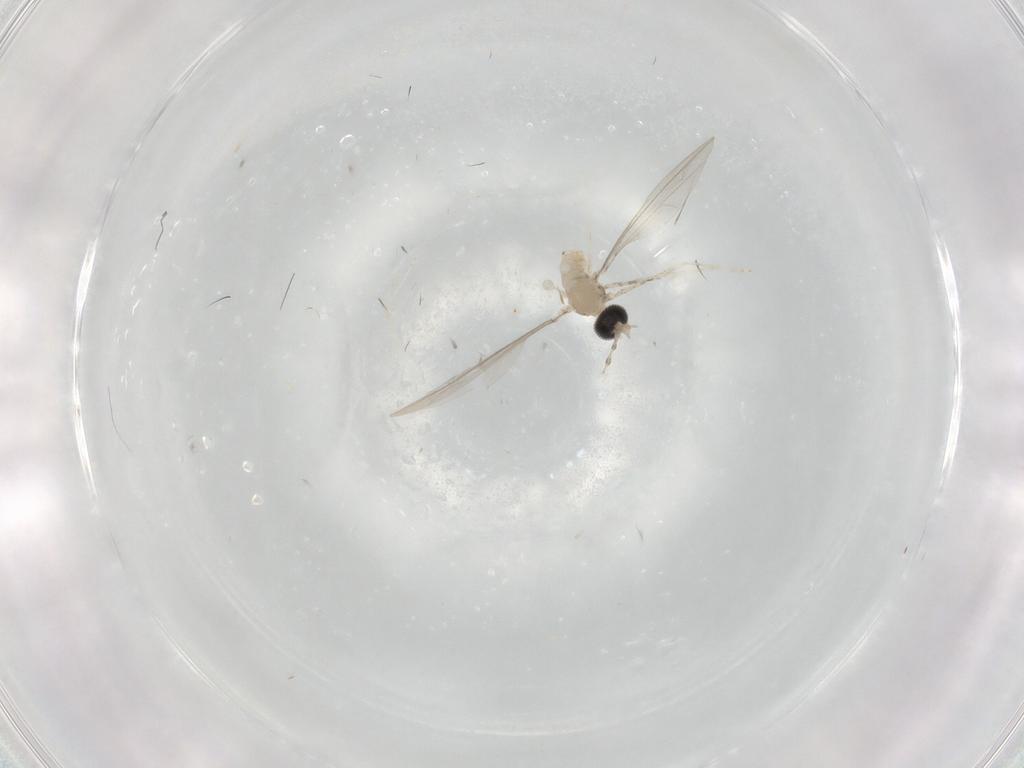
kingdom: Animalia
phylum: Arthropoda
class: Insecta
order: Diptera
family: Cecidomyiidae
